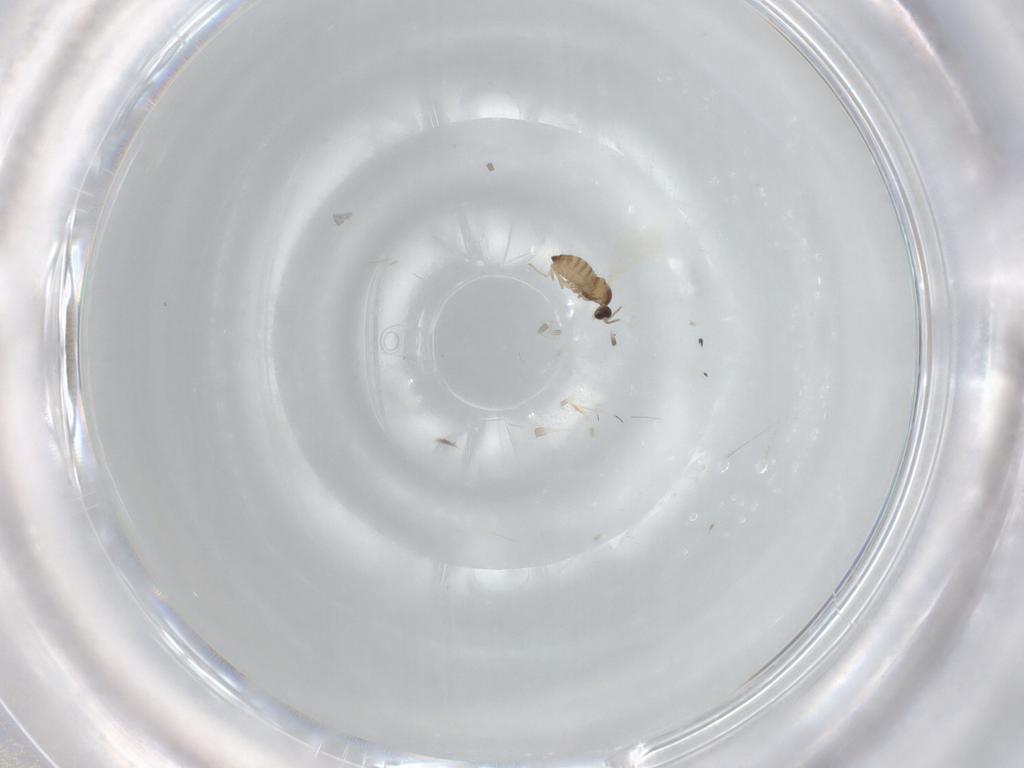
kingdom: Animalia
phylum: Arthropoda
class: Insecta
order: Diptera
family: Cecidomyiidae
